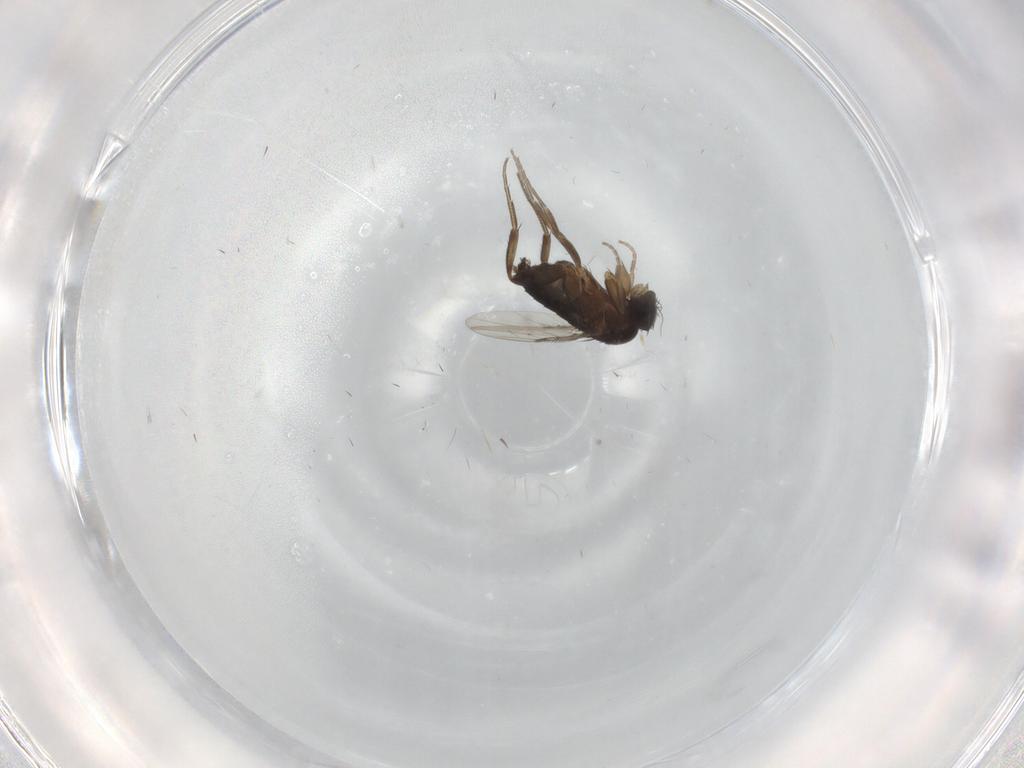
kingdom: Animalia
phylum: Arthropoda
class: Insecta
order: Diptera
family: Phoridae
